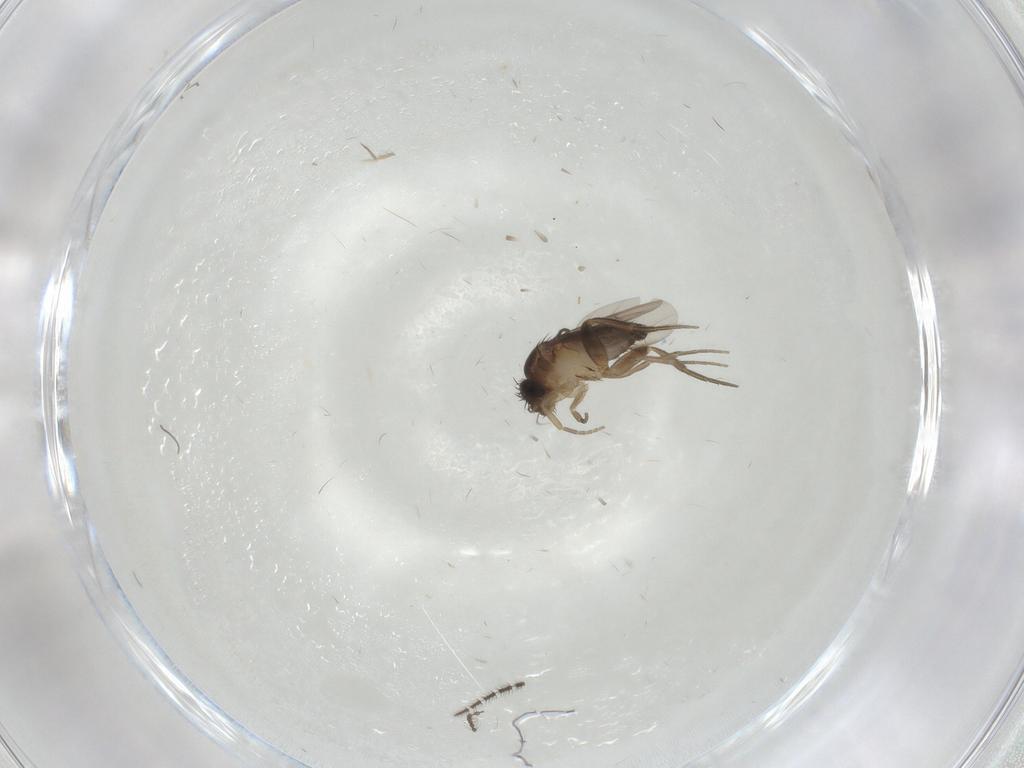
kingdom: Animalia
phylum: Arthropoda
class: Insecta
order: Diptera
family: Phoridae
